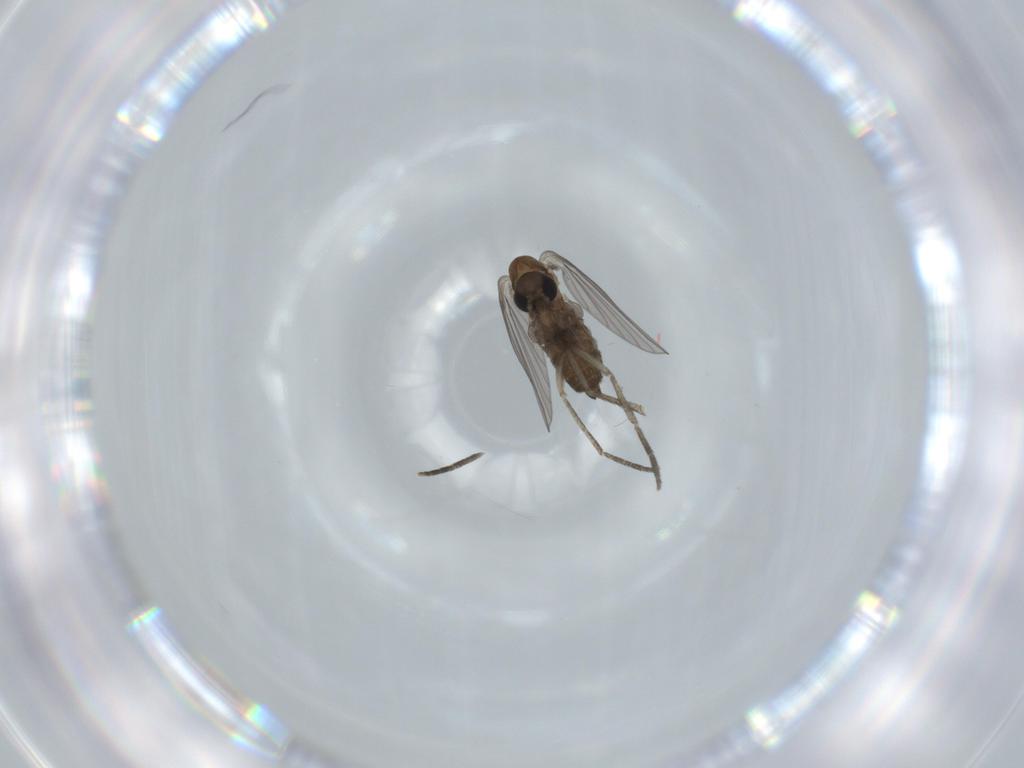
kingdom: Animalia
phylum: Arthropoda
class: Insecta
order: Diptera
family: Psychodidae
